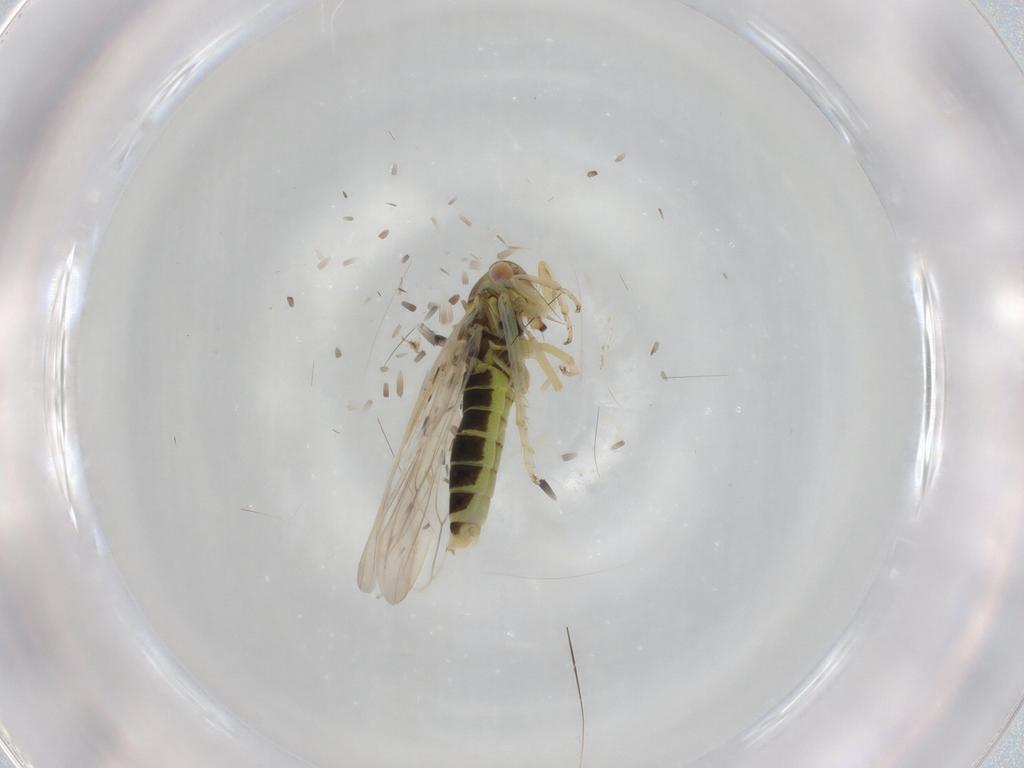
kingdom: Animalia
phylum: Arthropoda
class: Insecta
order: Hemiptera
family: Cicadellidae
